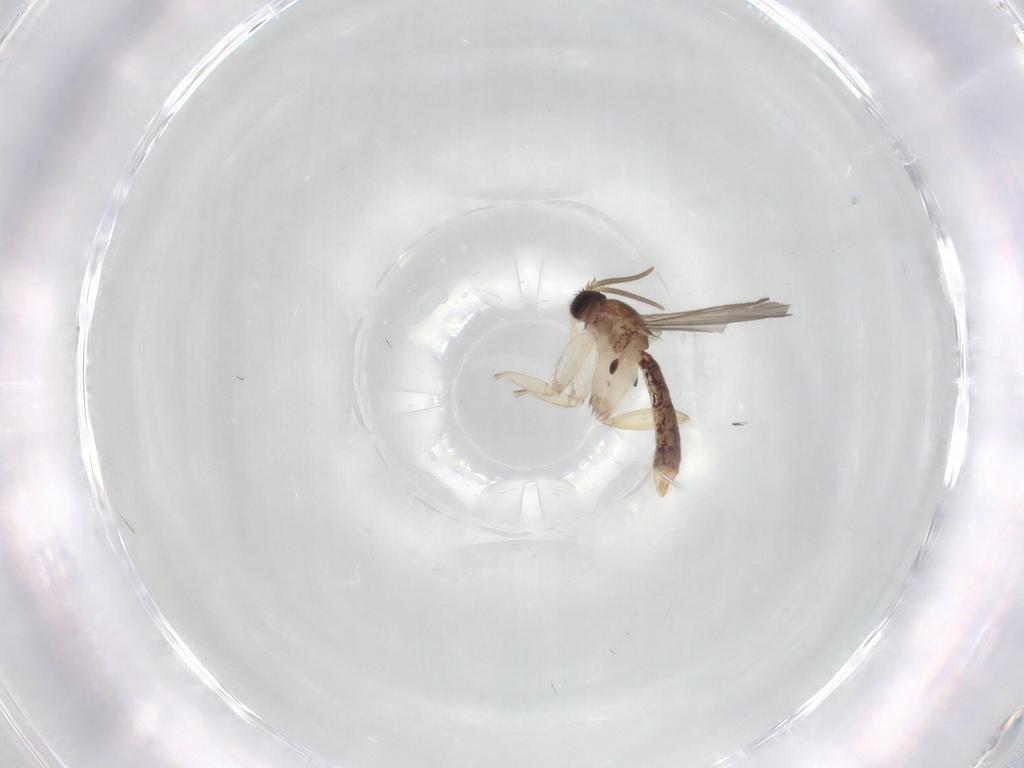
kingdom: Animalia
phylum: Arthropoda
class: Insecta
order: Diptera
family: Mycetophilidae
